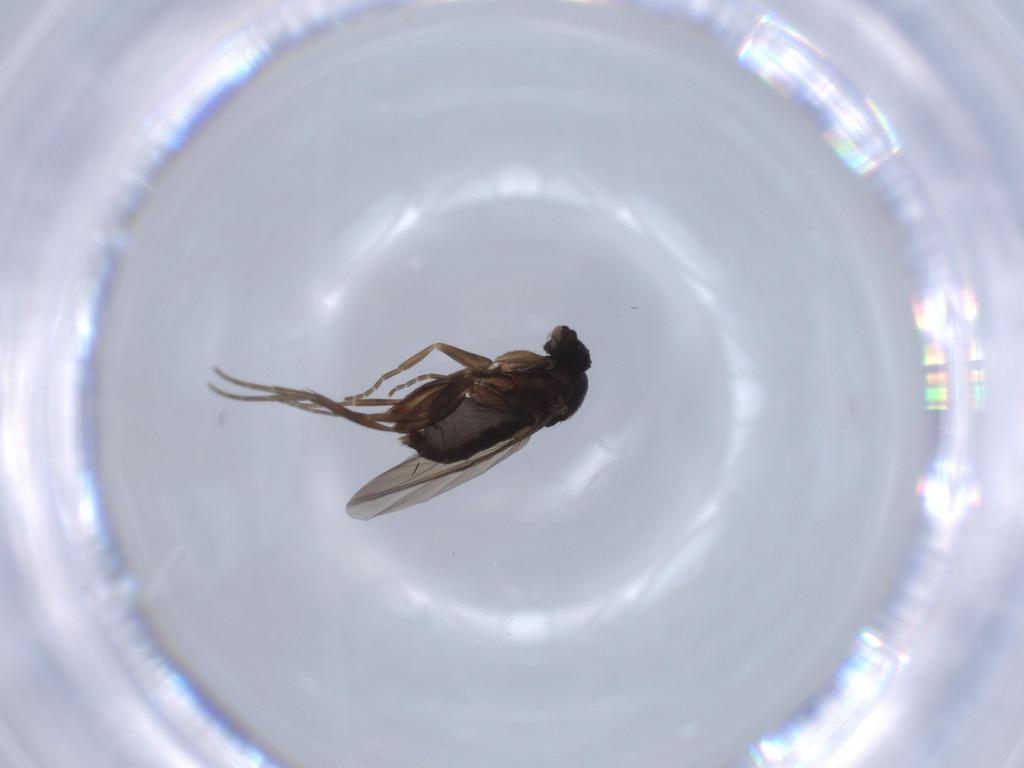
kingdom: Animalia
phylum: Arthropoda
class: Insecta
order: Diptera
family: Phoridae
